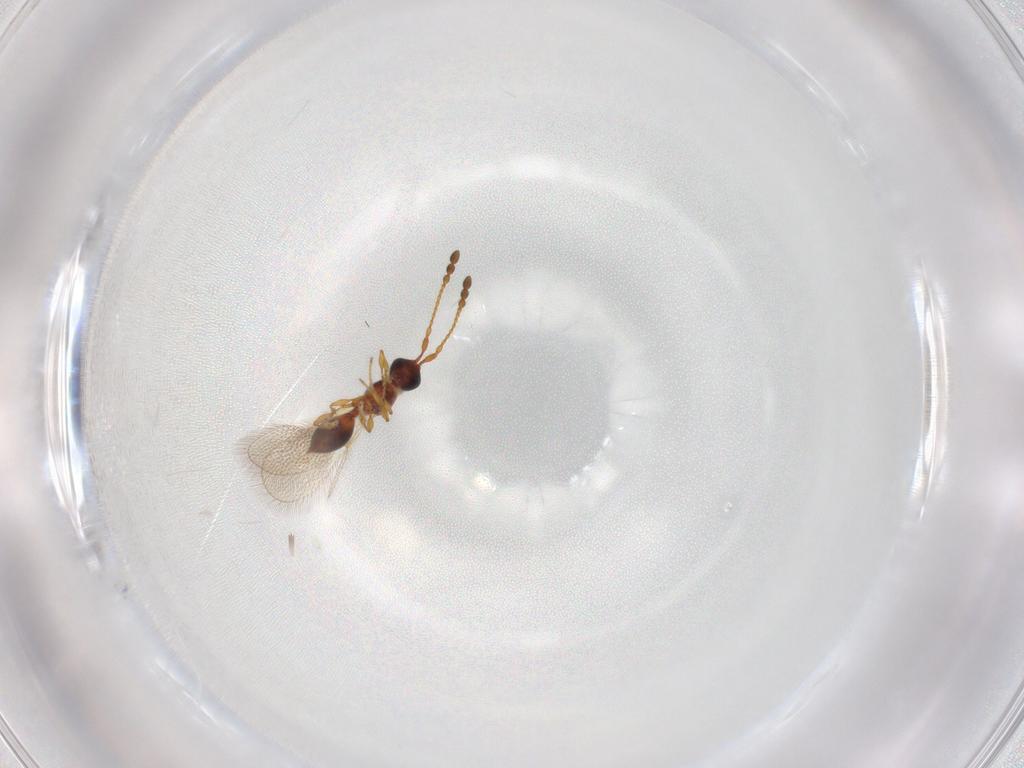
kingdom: Animalia
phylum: Arthropoda
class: Insecta
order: Hymenoptera
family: Diapriidae
